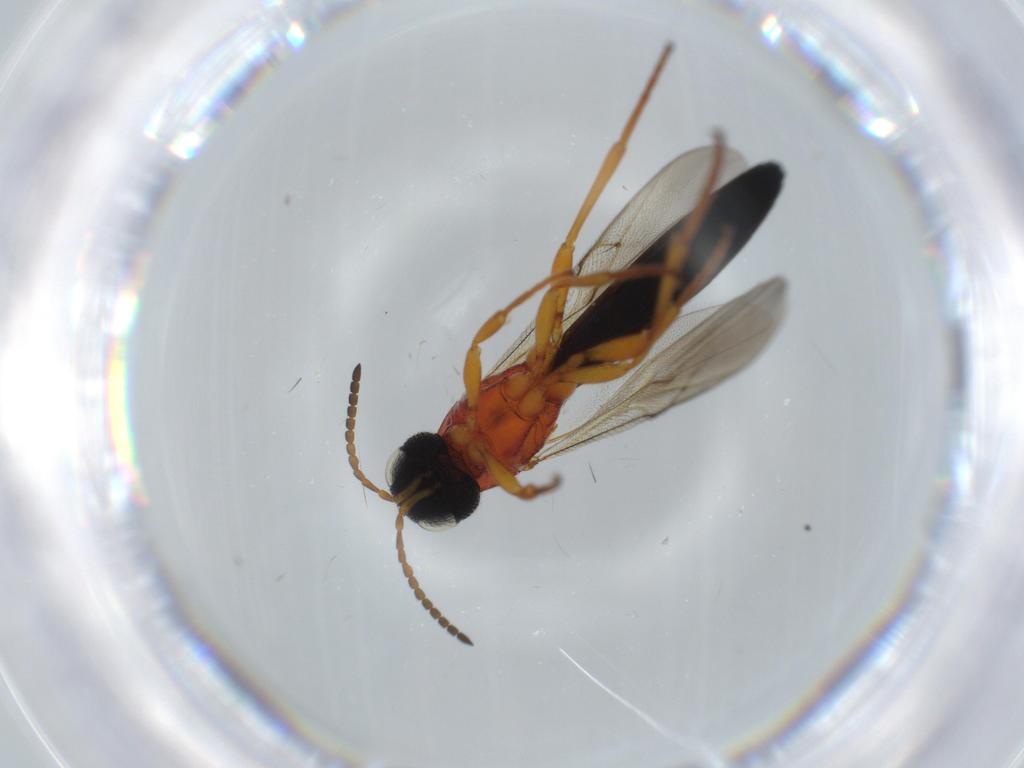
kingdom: Animalia
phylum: Arthropoda
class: Insecta
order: Hymenoptera
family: Scelionidae
